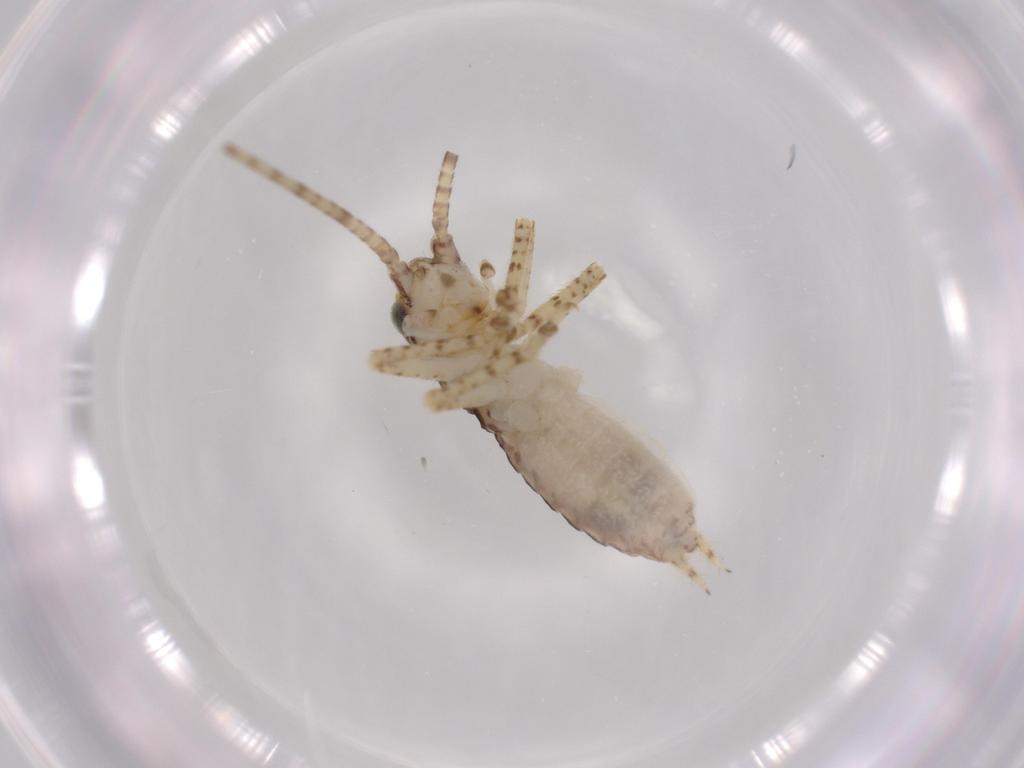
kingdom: Animalia
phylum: Arthropoda
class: Insecta
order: Orthoptera
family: Gryllidae
